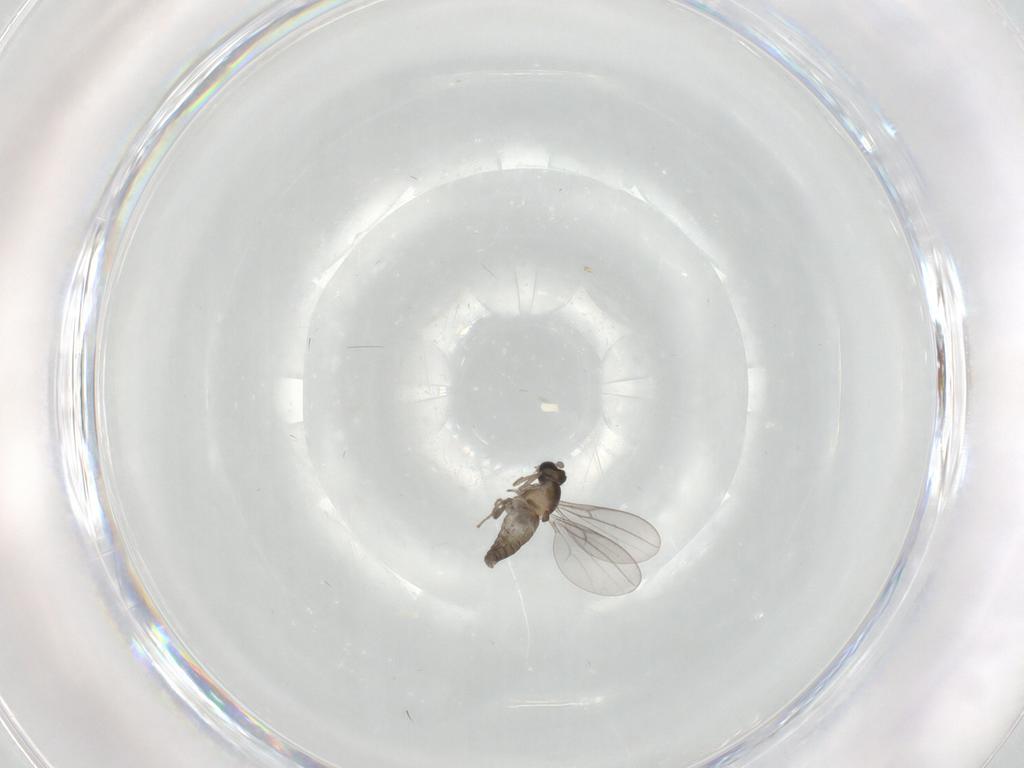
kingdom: Animalia
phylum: Arthropoda
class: Insecta
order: Diptera
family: Cecidomyiidae
